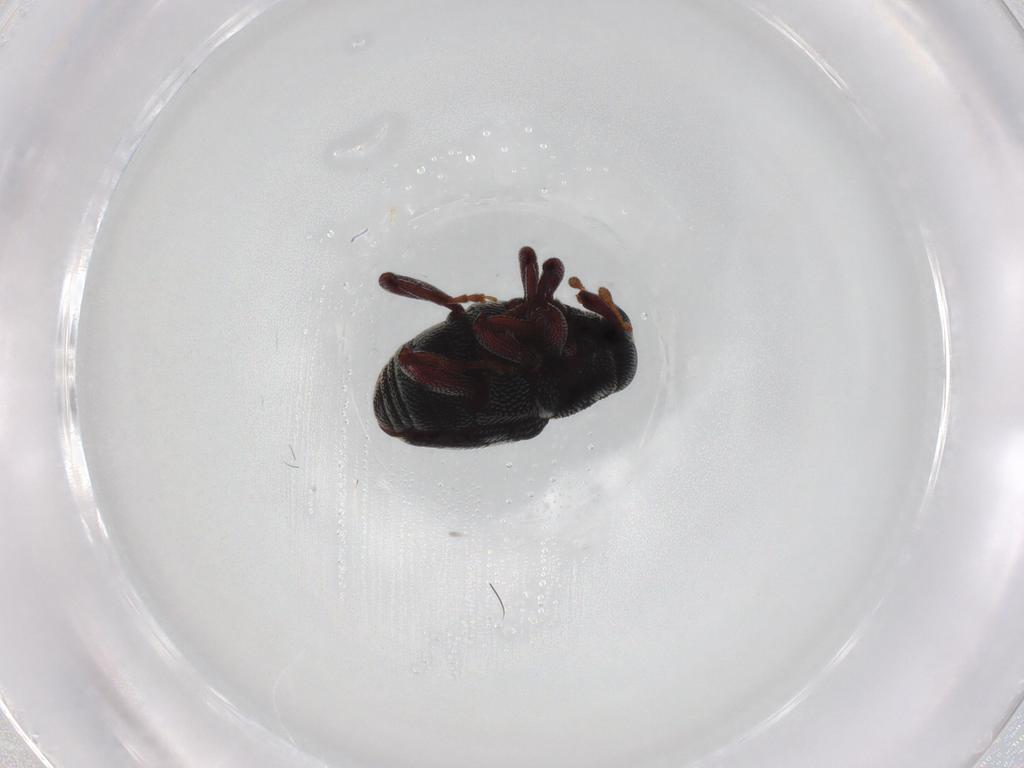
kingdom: Animalia
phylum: Arthropoda
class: Insecta
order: Coleoptera
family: Curculionidae
